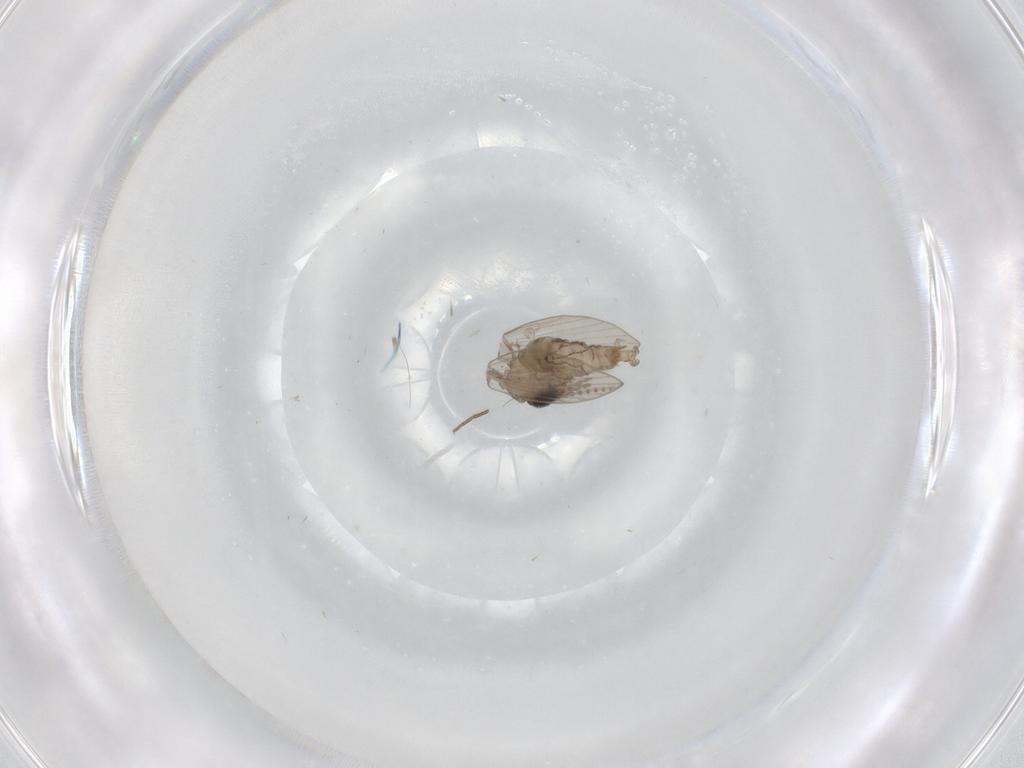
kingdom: Animalia
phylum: Arthropoda
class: Insecta
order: Diptera
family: Psychodidae
